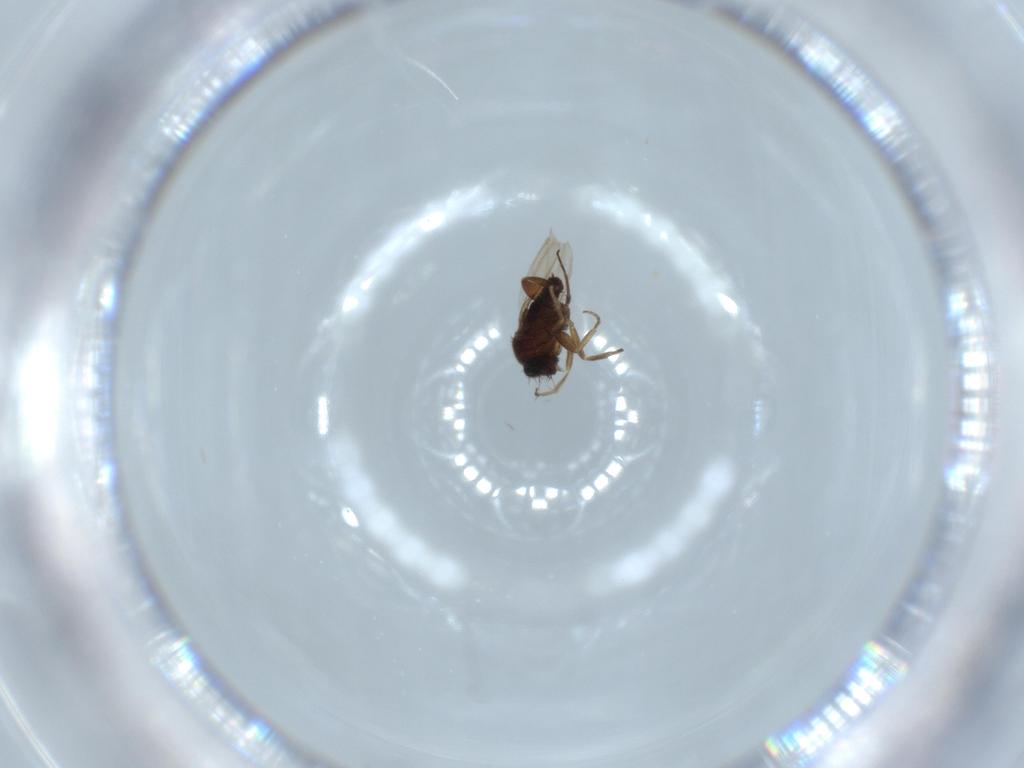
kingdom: Animalia
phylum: Arthropoda
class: Insecta
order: Diptera
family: Phoridae
